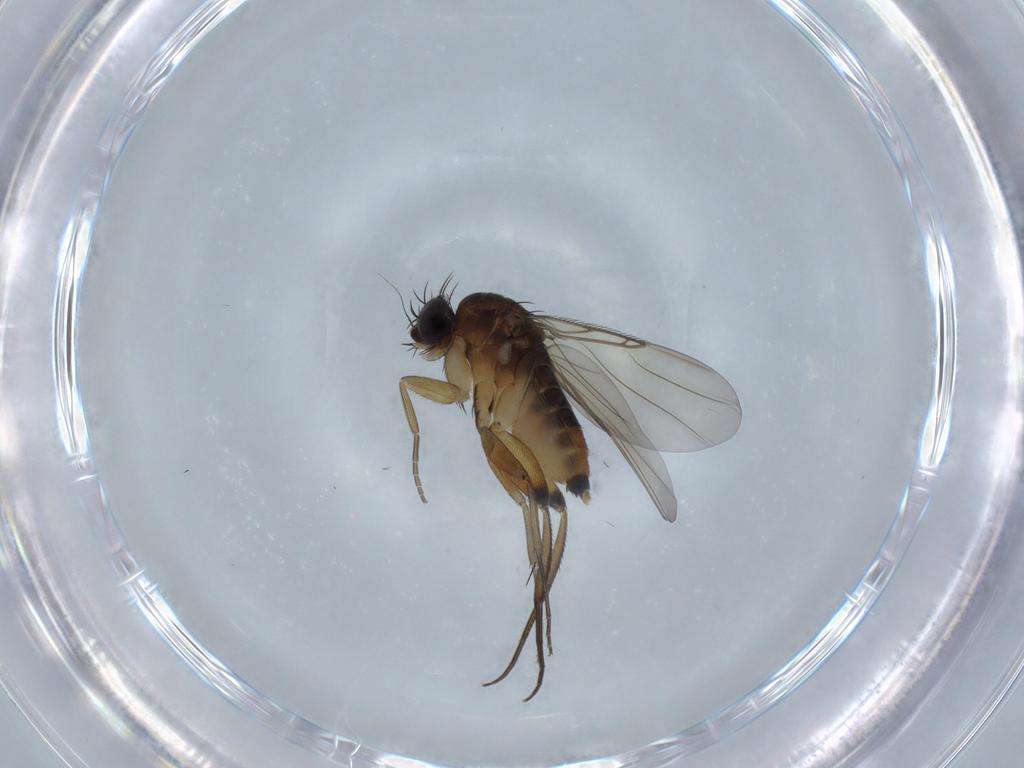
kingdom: Animalia
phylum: Arthropoda
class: Insecta
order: Diptera
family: Phoridae
